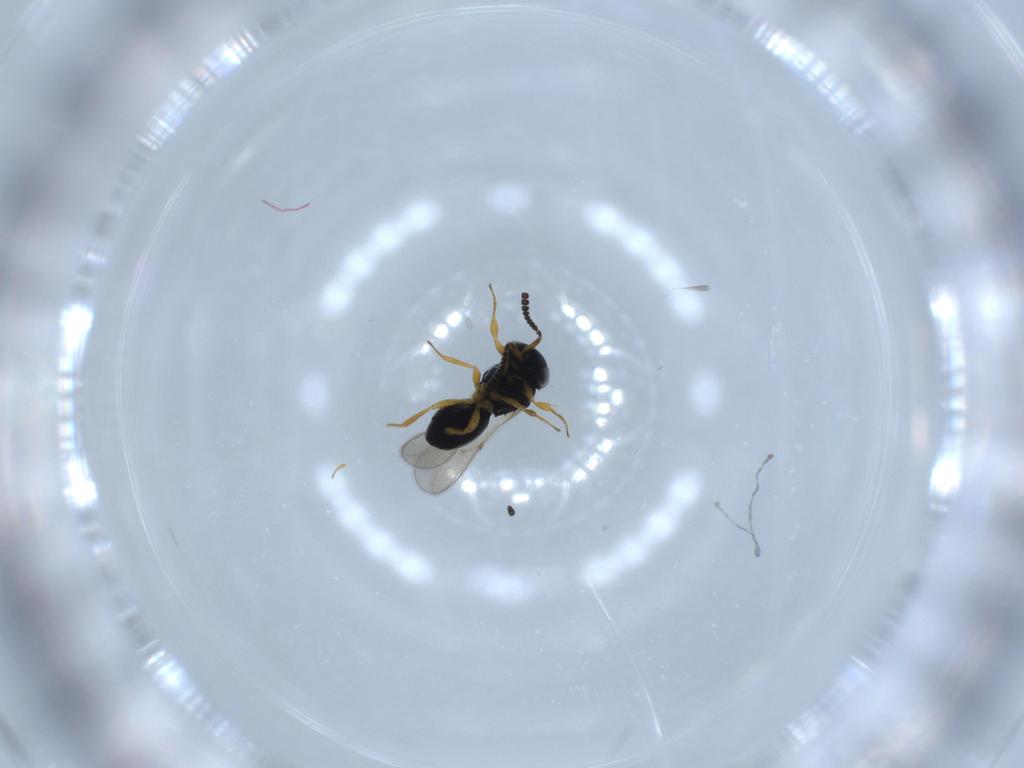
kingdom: Animalia
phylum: Arthropoda
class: Insecta
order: Hymenoptera
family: Scelionidae
